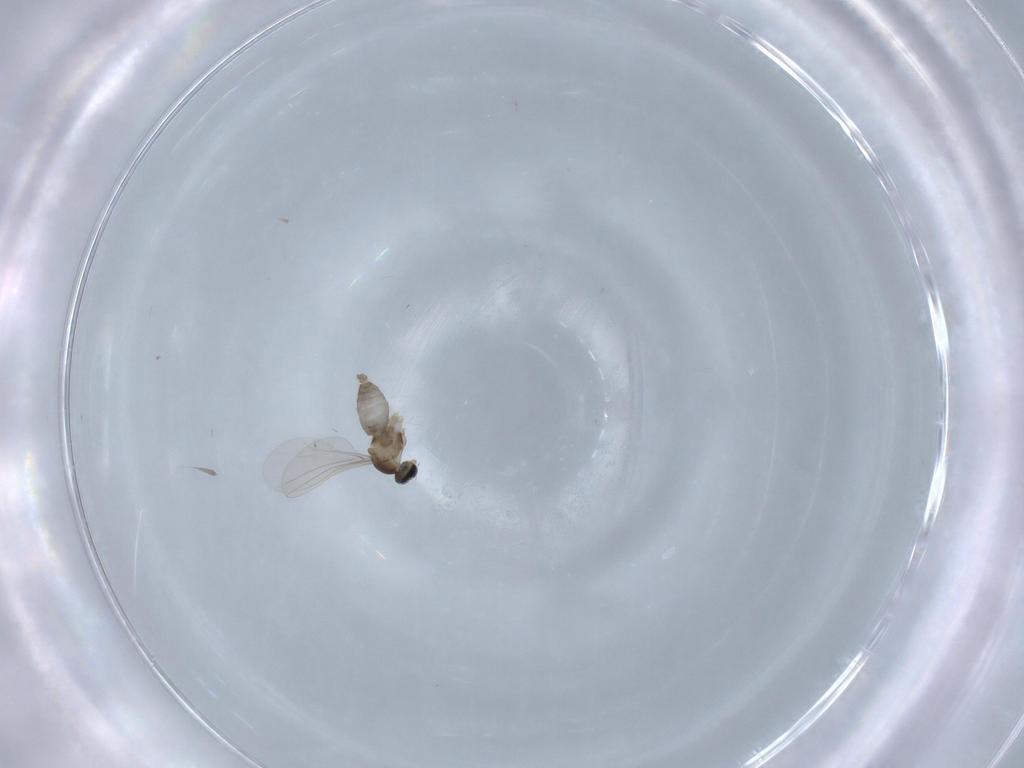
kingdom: Animalia
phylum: Arthropoda
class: Insecta
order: Diptera
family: Cecidomyiidae
